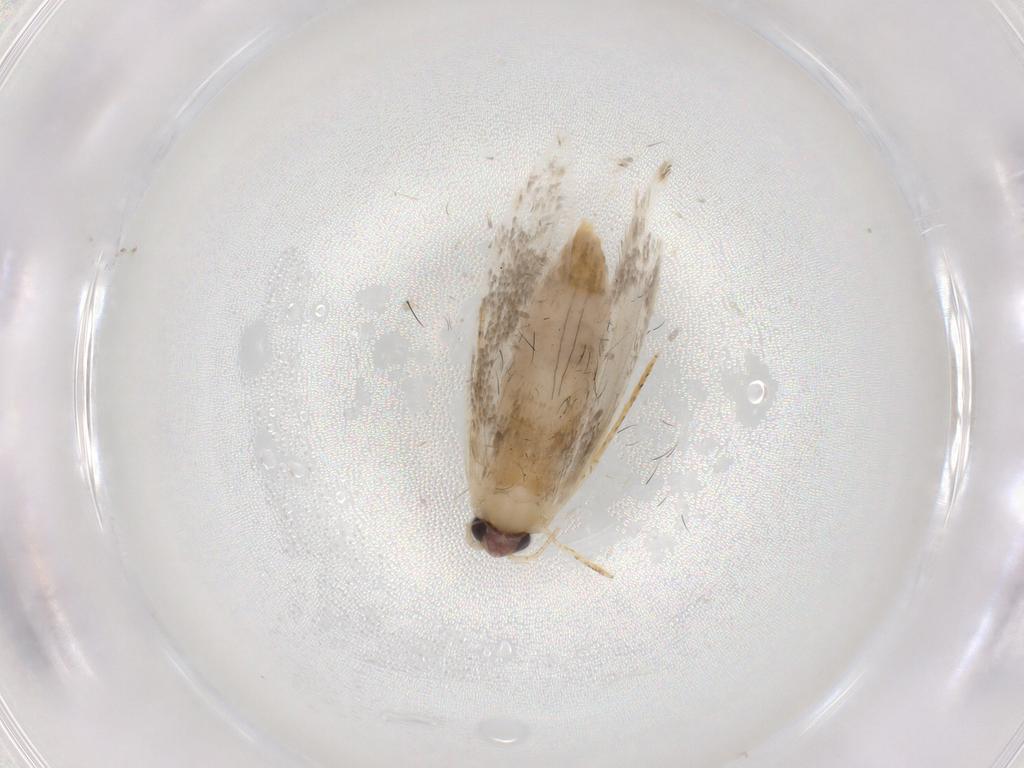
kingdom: Animalia
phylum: Arthropoda
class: Insecta
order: Lepidoptera
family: Tineidae
